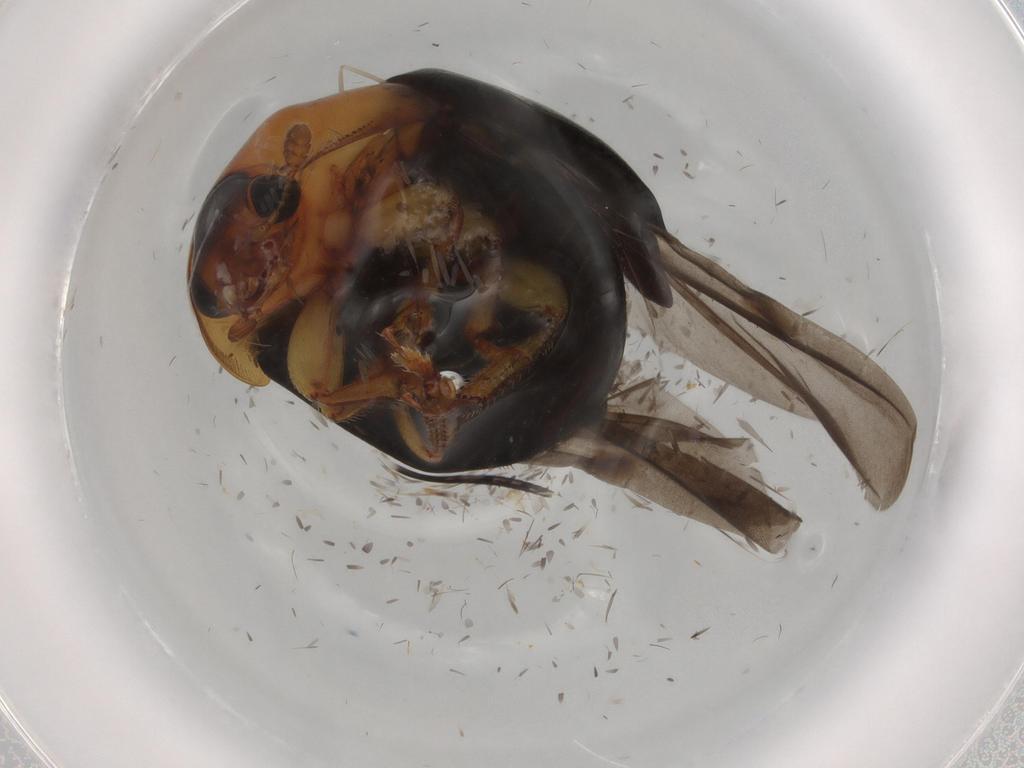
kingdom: Animalia
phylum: Arthropoda
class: Insecta
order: Coleoptera
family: Nitidulidae
